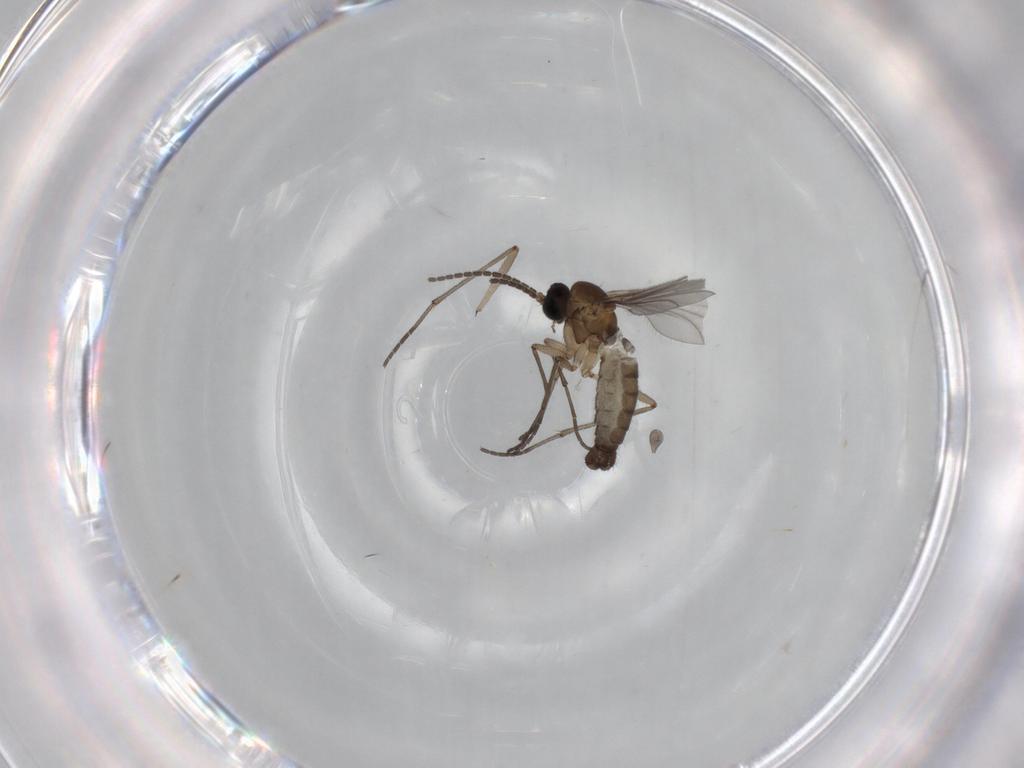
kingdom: Animalia
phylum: Arthropoda
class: Insecta
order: Diptera
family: Sciaridae
